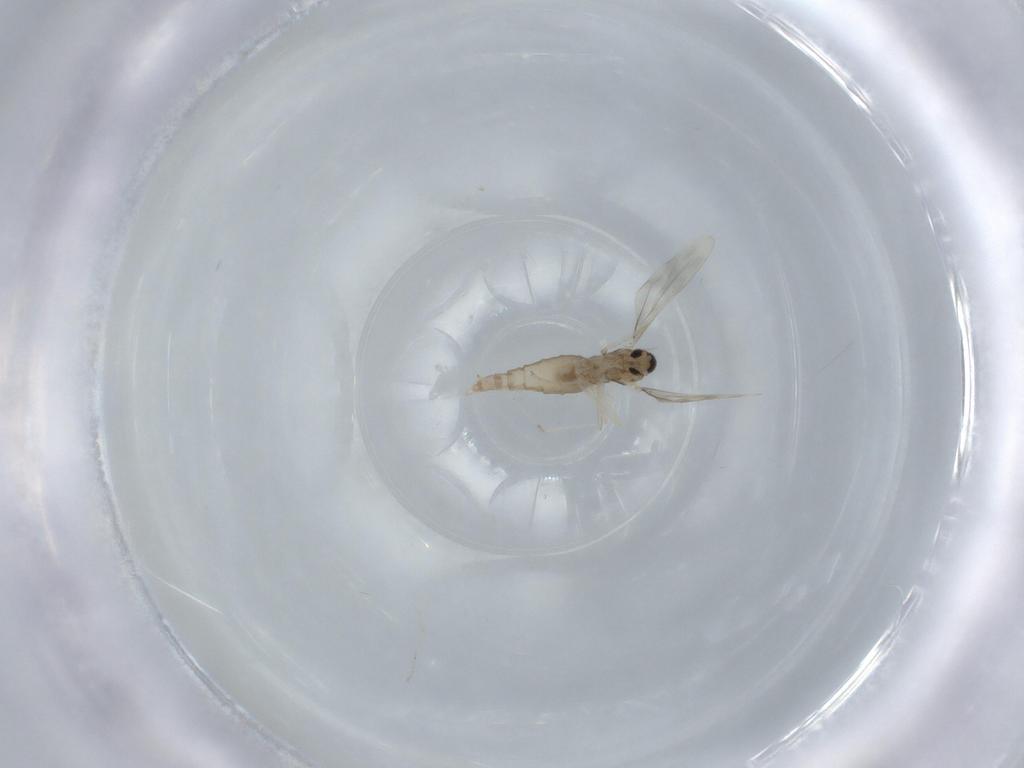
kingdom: Animalia
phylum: Arthropoda
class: Insecta
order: Diptera
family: Cecidomyiidae
